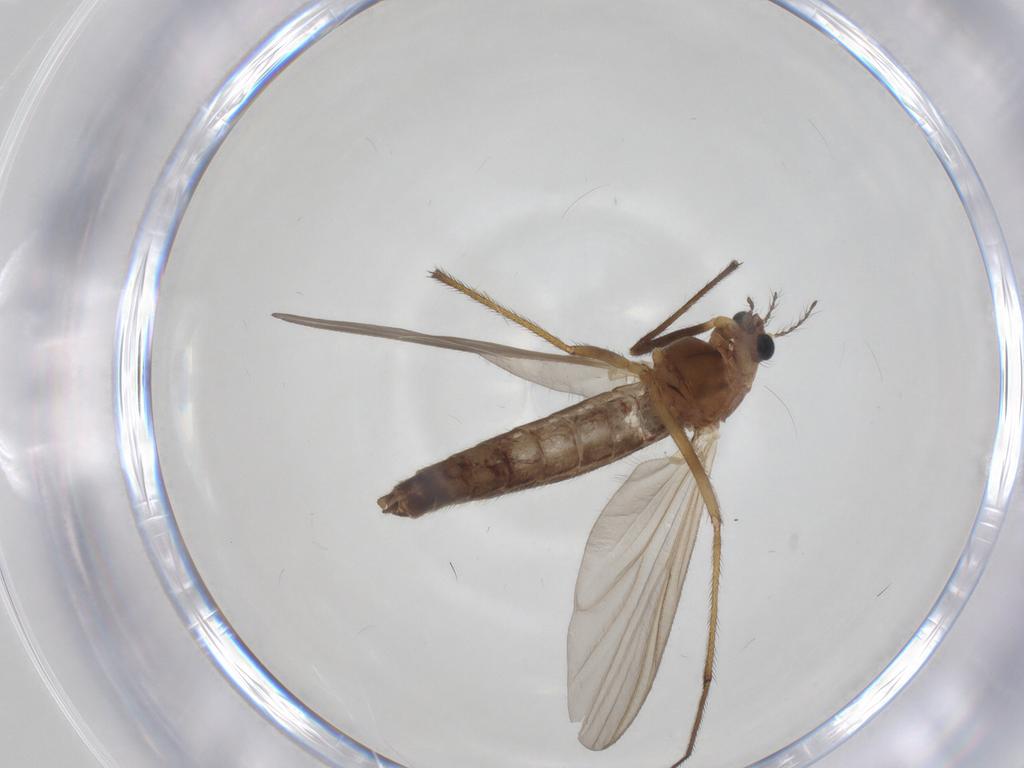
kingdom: Animalia
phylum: Arthropoda
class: Insecta
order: Diptera
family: Chironomidae
